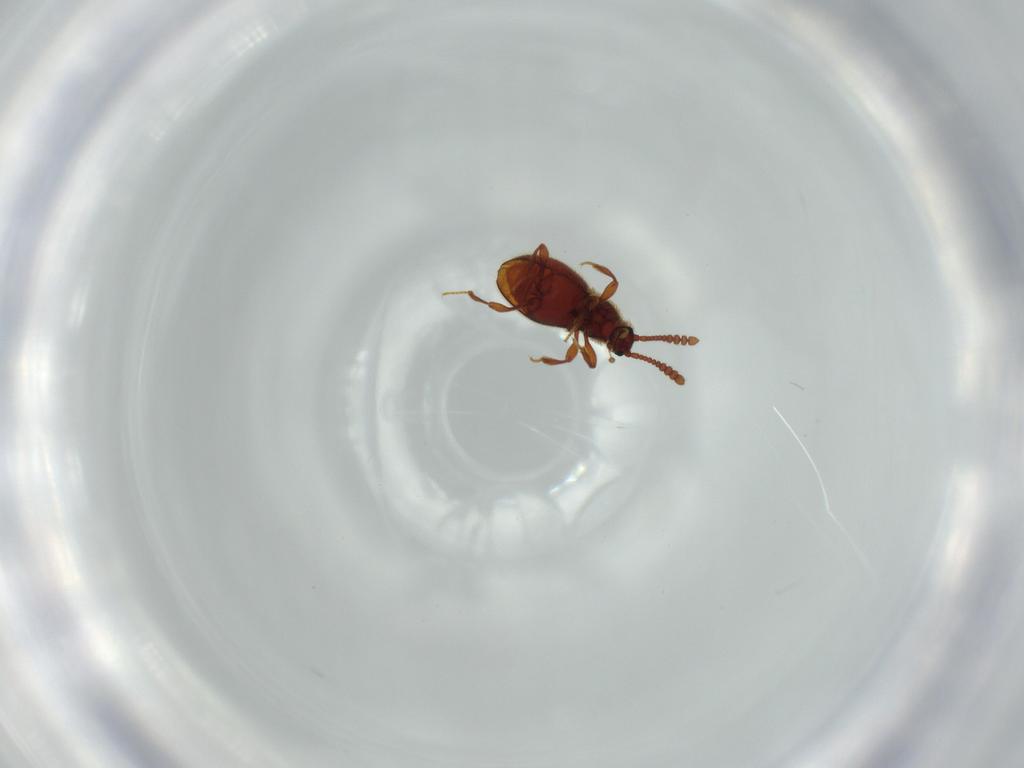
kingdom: Animalia
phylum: Arthropoda
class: Insecta
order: Coleoptera
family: Staphylinidae
